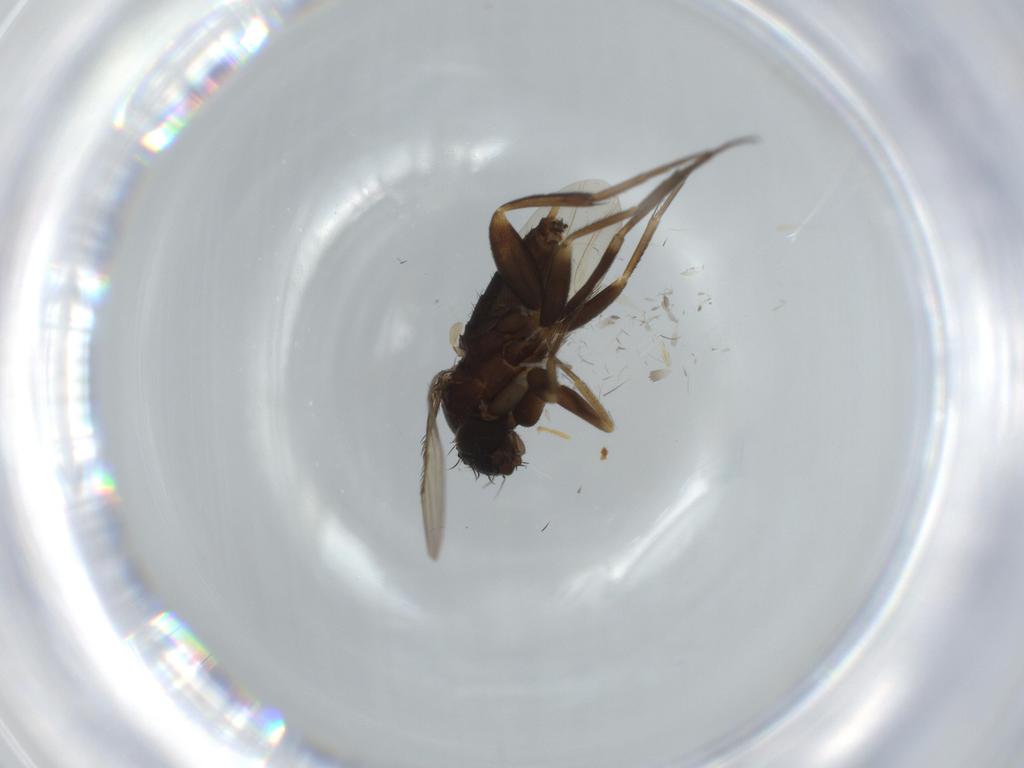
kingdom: Animalia
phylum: Arthropoda
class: Insecta
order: Diptera
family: Phoridae
